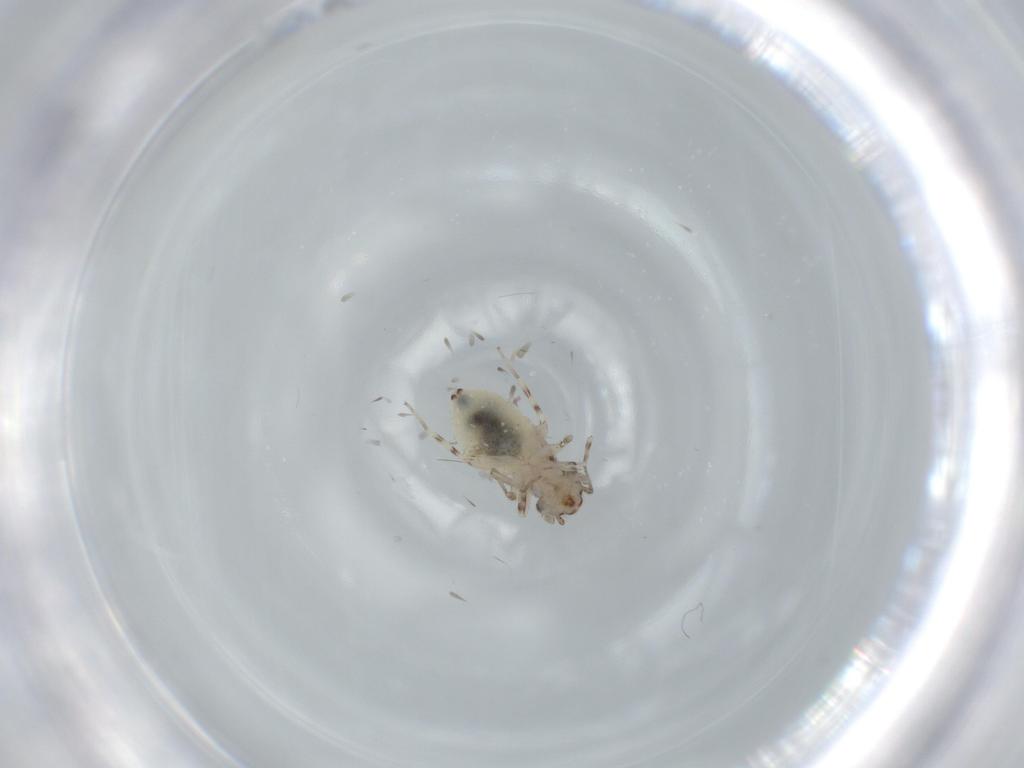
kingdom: Animalia
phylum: Arthropoda
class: Insecta
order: Psocodea
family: Lepidopsocidae
